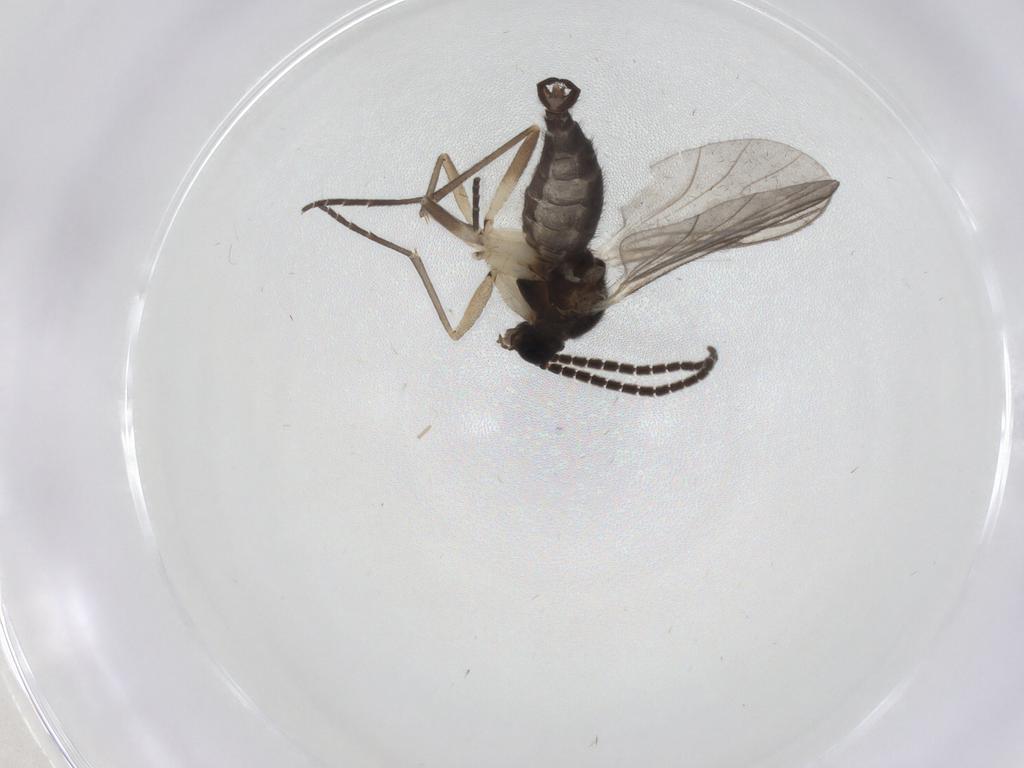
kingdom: Animalia
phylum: Arthropoda
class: Insecta
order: Diptera
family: Sciaridae
